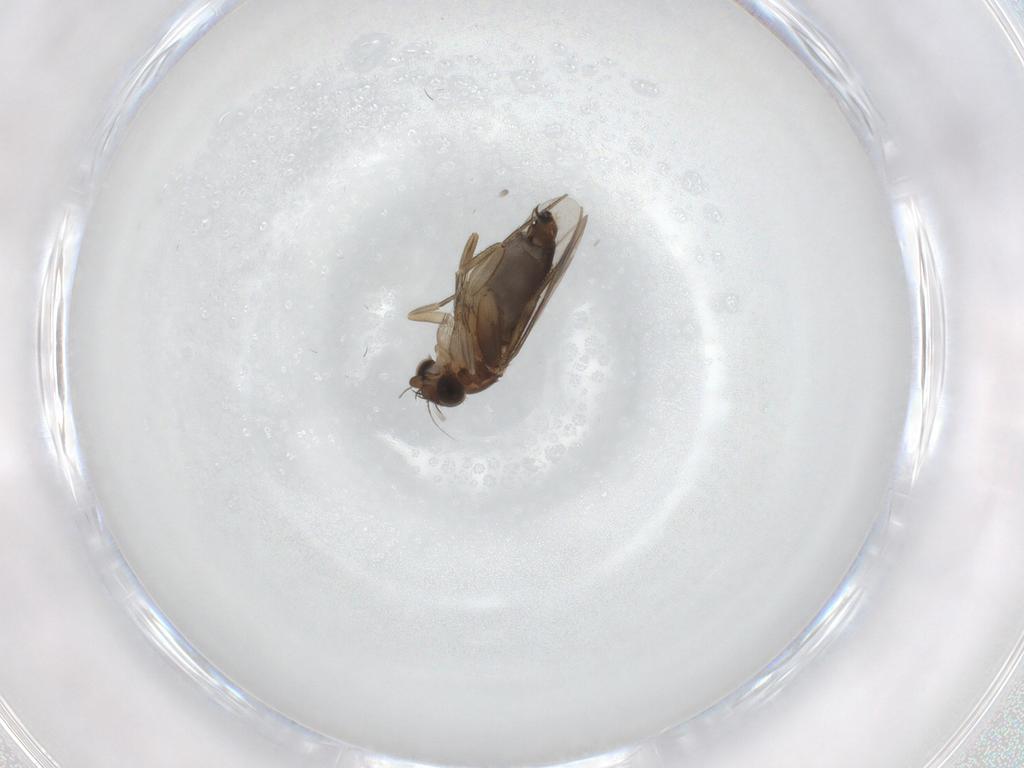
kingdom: Animalia
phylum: Arthropoda
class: Insecta
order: Diptera
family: Phoridae
